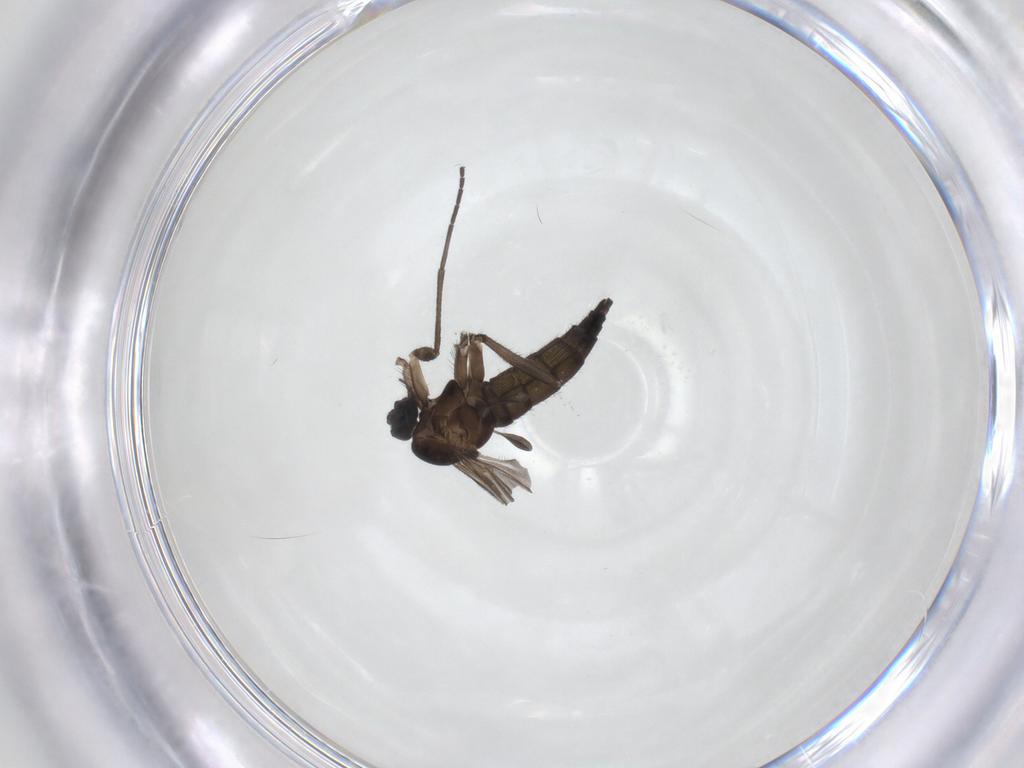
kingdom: Animalia
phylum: Arthropoda
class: Insecta
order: Diptera
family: Sciaridae
